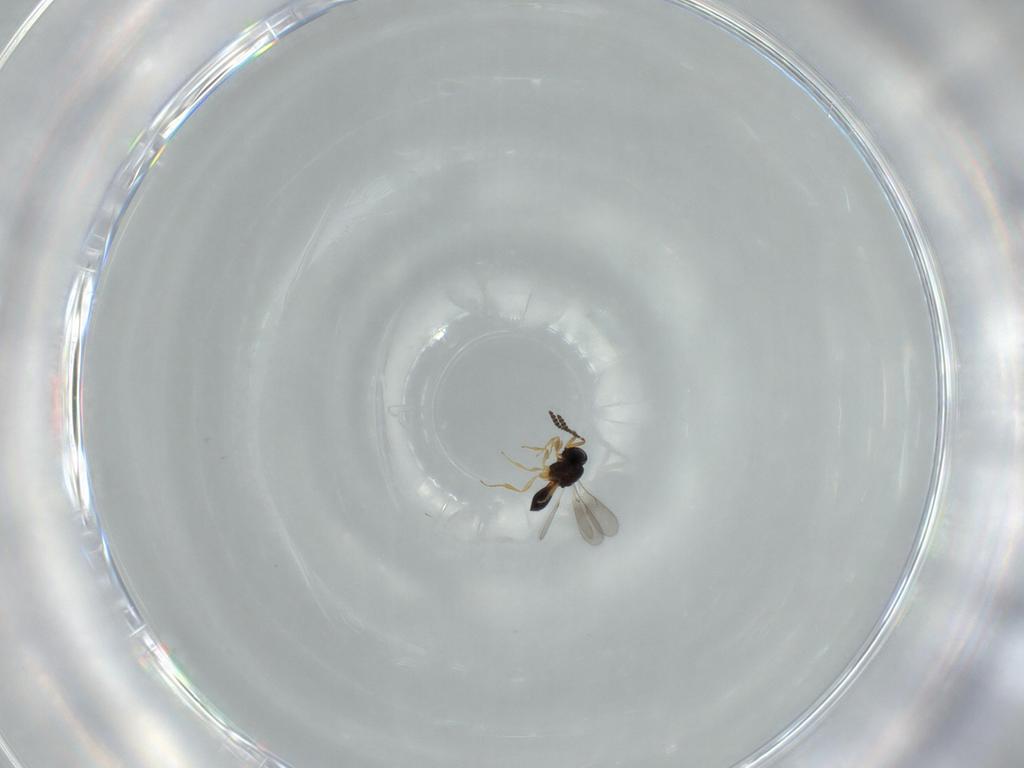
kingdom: Animalia
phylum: Arthropoda
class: Insecta
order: Hymenoptera
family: Scelionidae
